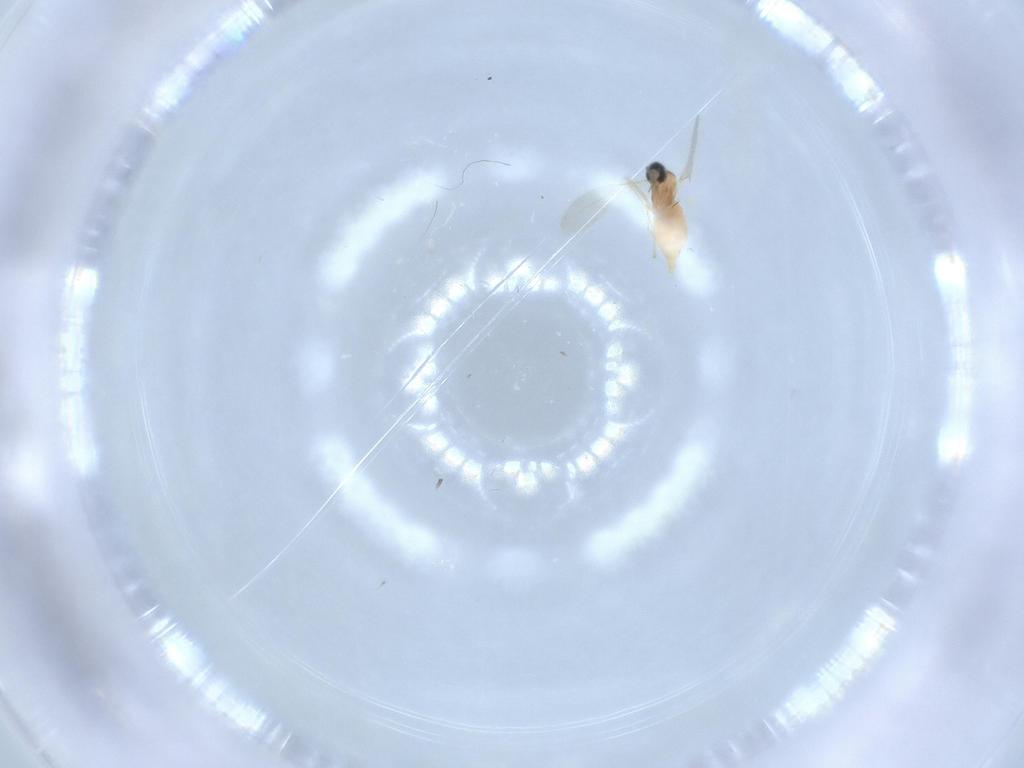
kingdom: Animalia
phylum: Arthropoda
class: Insecta
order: Diptera
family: Cecidomyiidae
